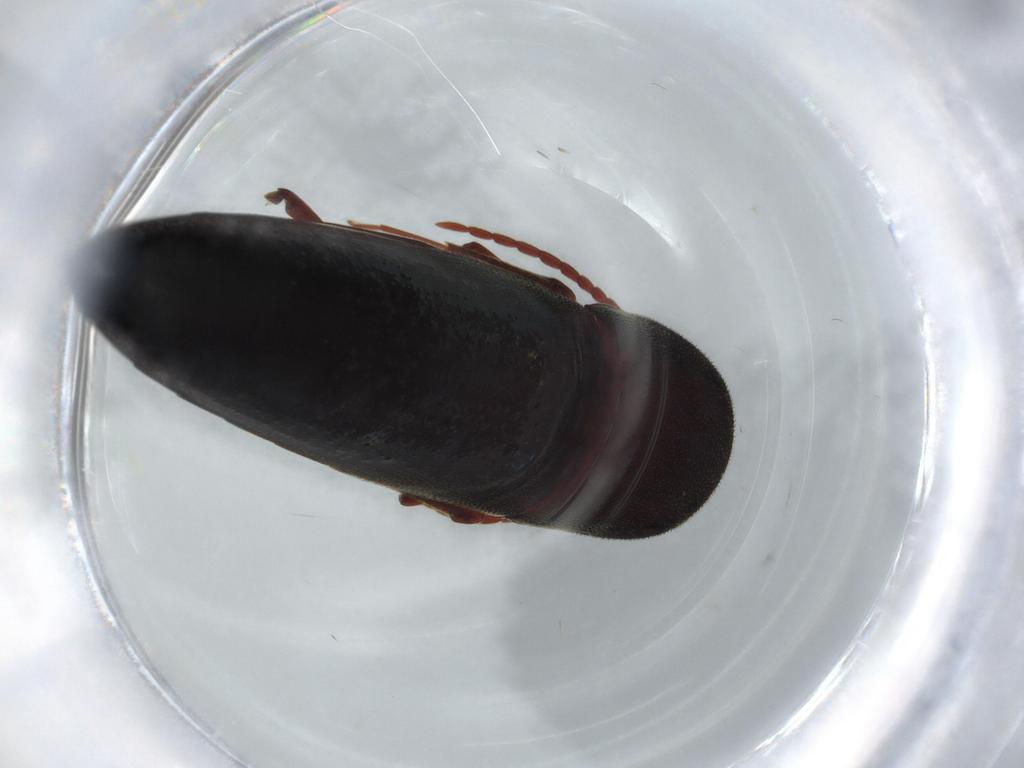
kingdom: Animalia
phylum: Arthropoda
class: Insecta
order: Coleoptera
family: Eucnemidae
